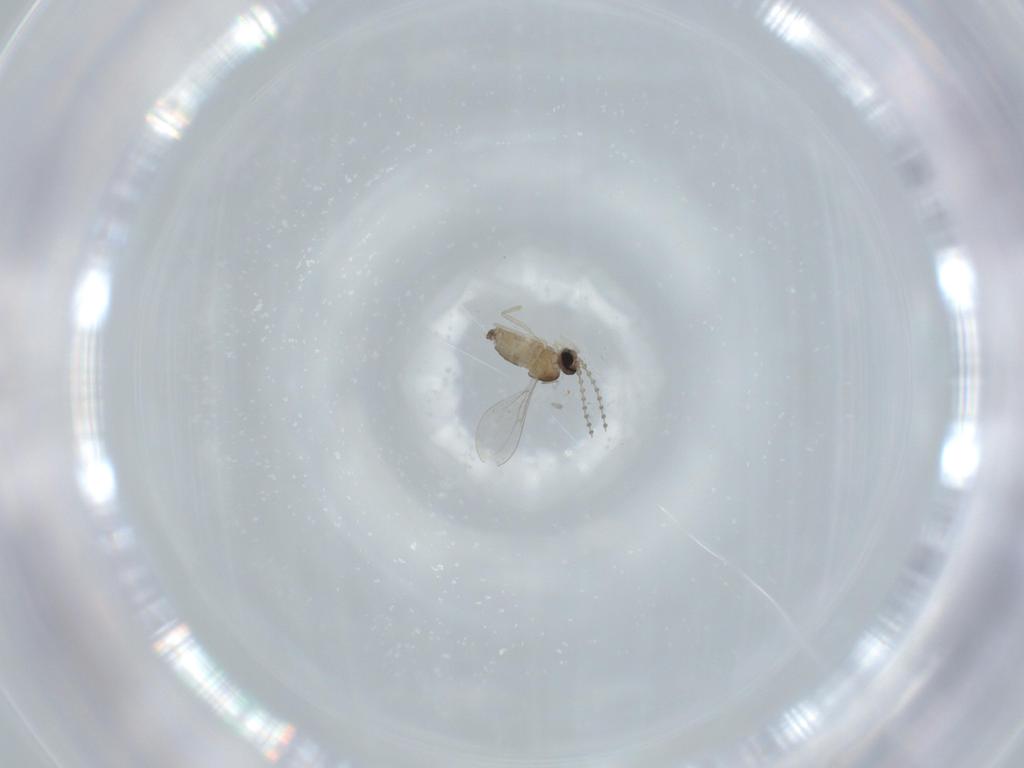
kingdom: Animalia
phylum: Arthropoda
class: Insecta
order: Diptera
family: Cecidomyiidae
